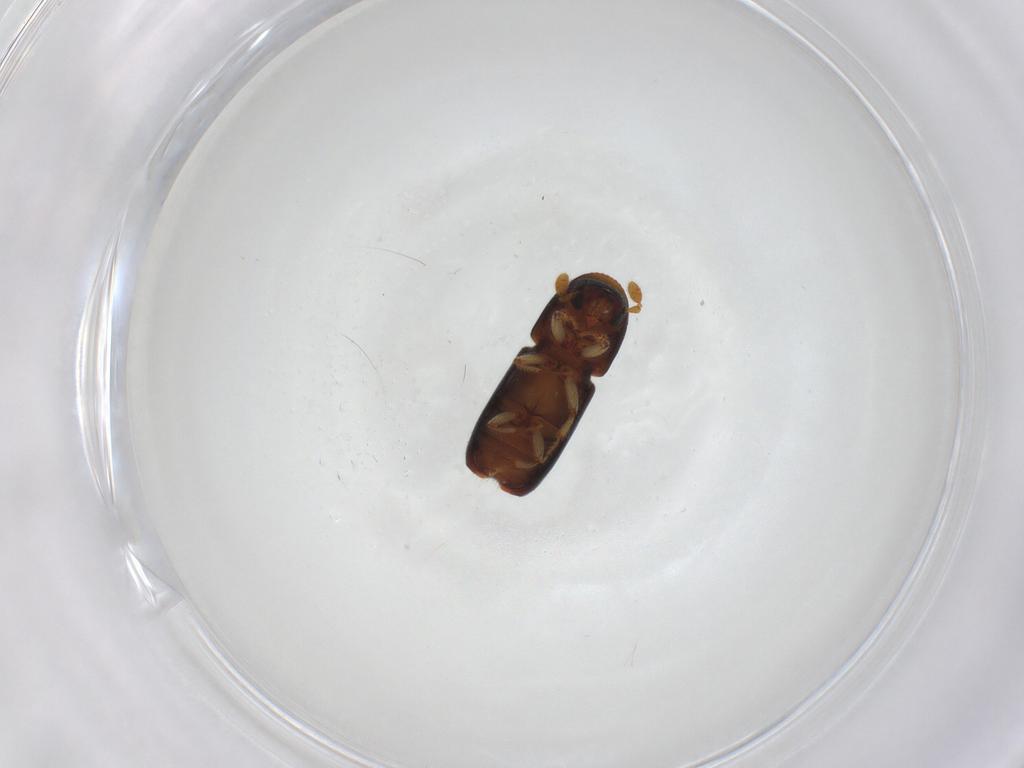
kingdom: Animalia
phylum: Arthropoda
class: Insecta
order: Coleoptera
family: Curculionidae
